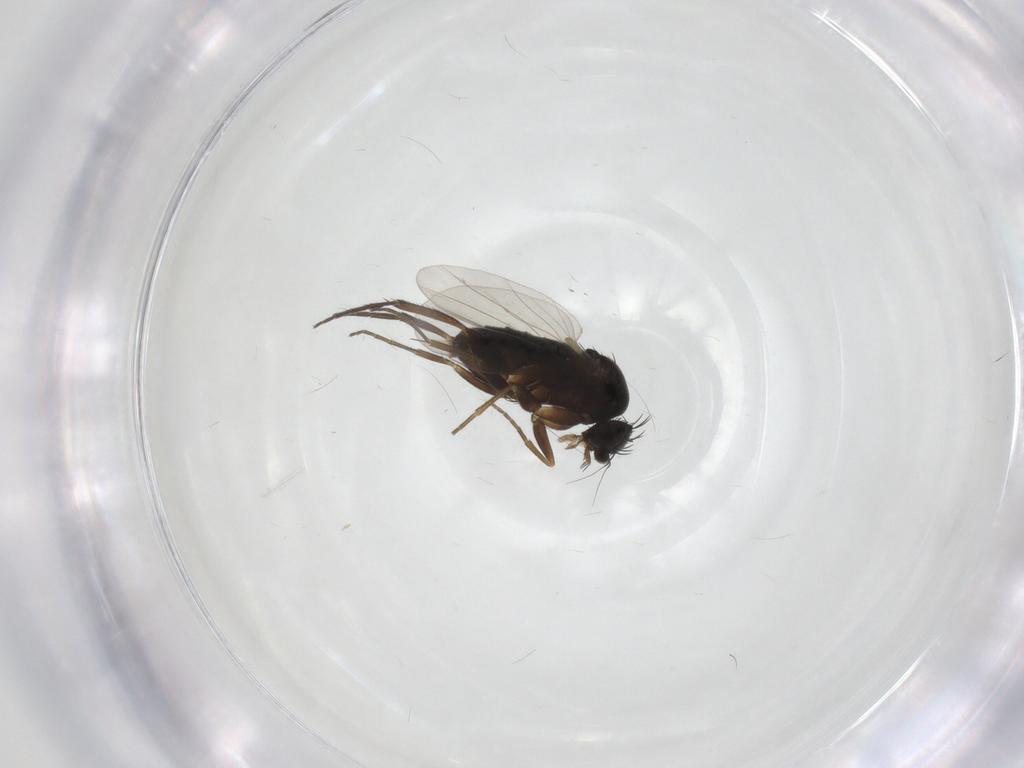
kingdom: Animalia
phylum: Arthropoda
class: Insecta
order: Diptera
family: Phoridae
